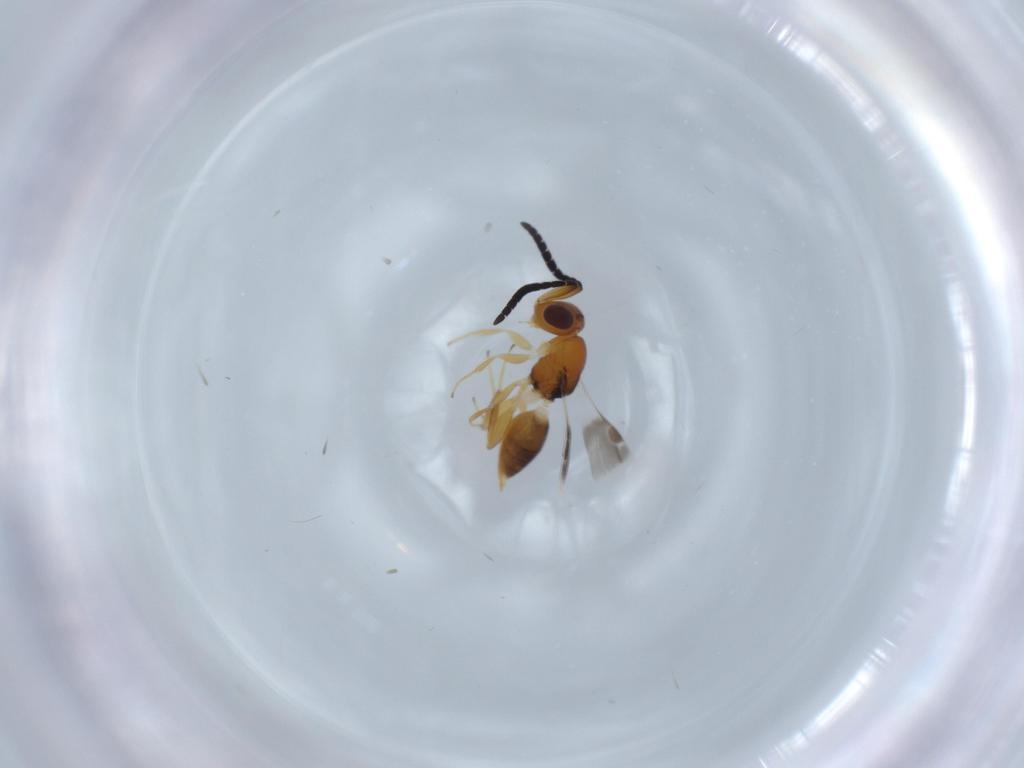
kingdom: Animalia
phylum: Arthropoda
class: Insecta
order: Hymenoptera
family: Megaspilidae
